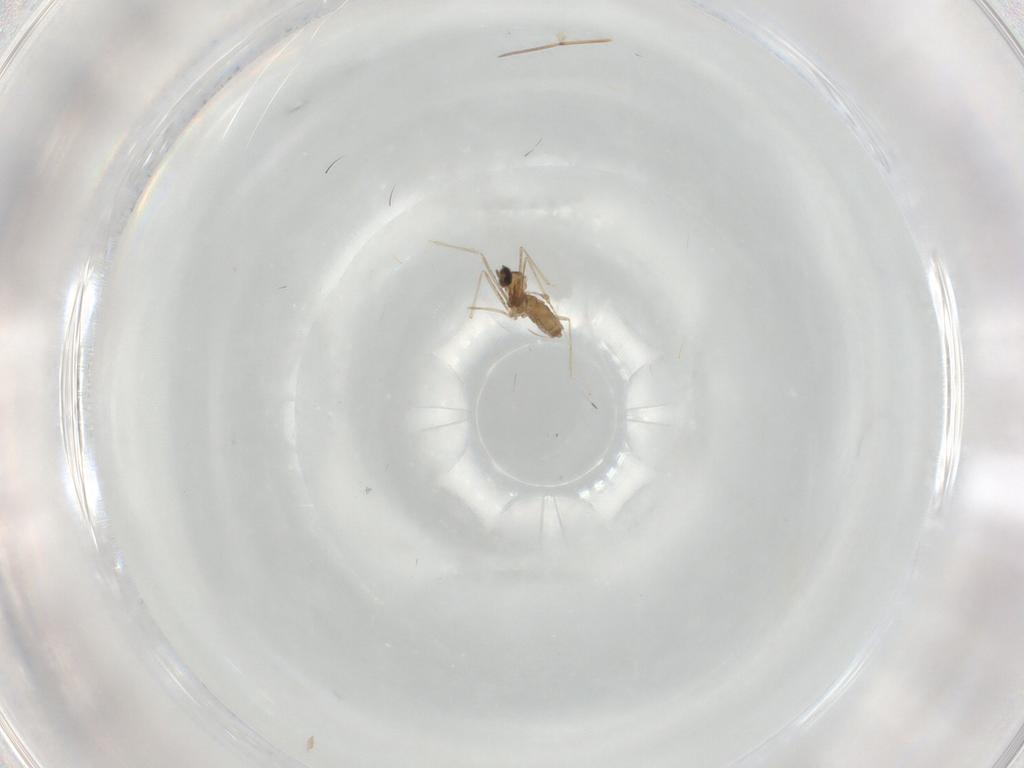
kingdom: Animalia
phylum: Arthropoda
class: Insecta
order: Diptera
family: Cecidomyiidae
